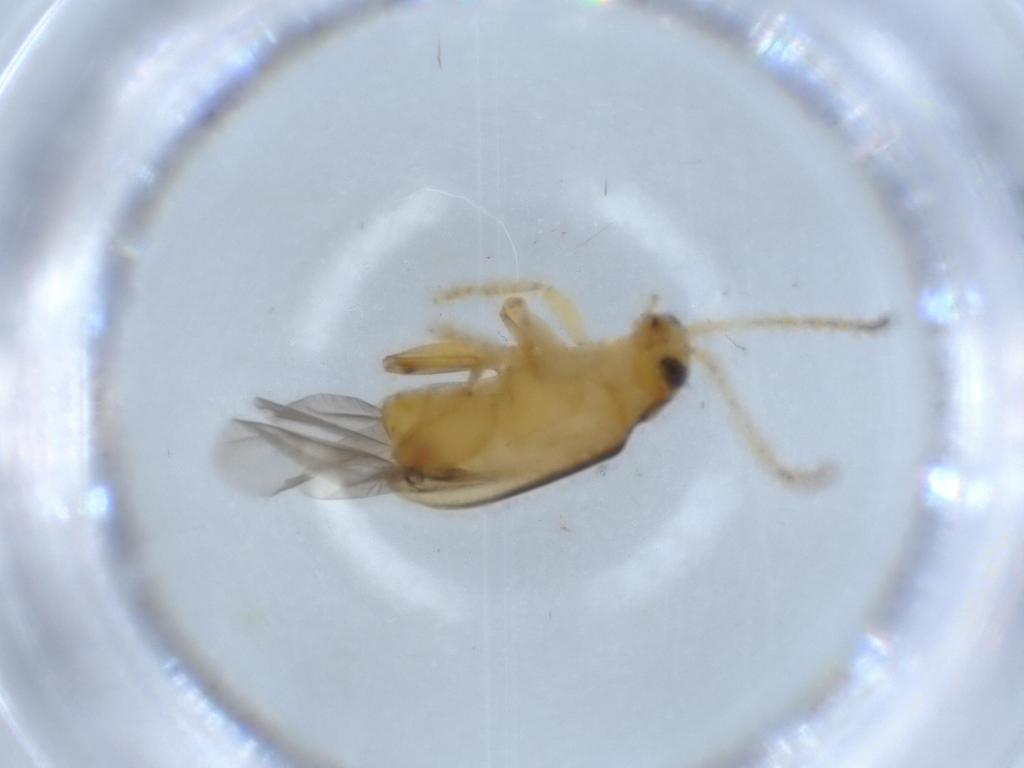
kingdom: Animalia
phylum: Arthropoda
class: Insecta
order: Coleoptera
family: Chrysomelidae
